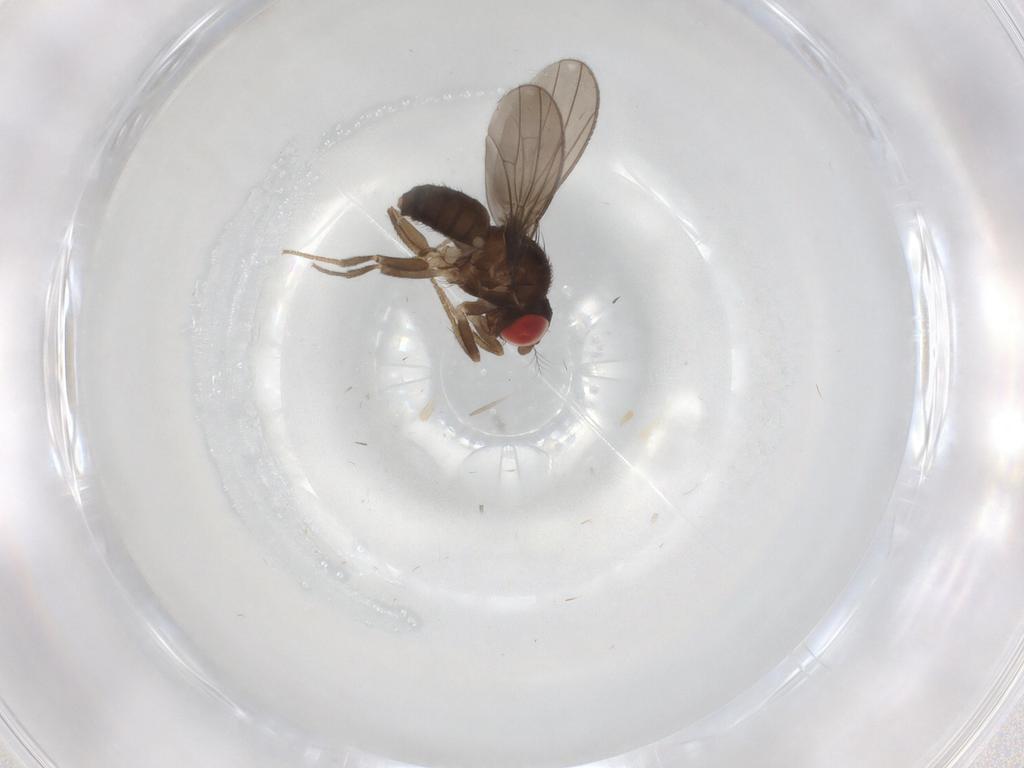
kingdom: Animalia
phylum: Arthropoda
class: Insecta
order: Diptera
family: Drosophilidae
